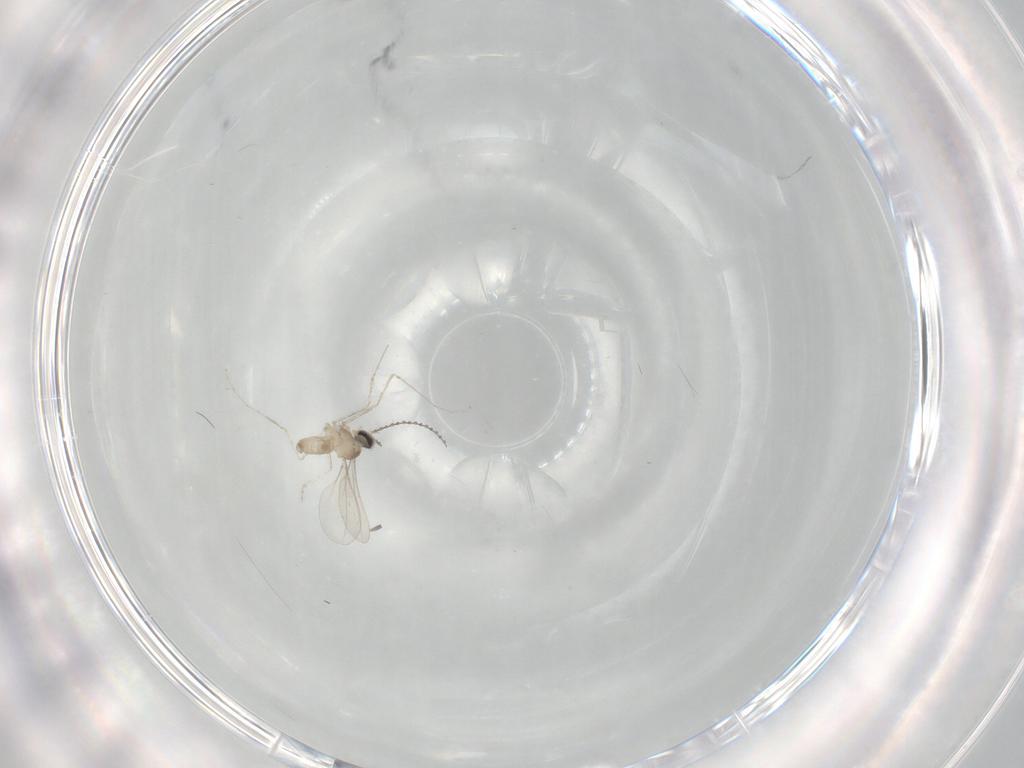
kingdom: Animalia
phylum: Arthropoda
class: Insecta
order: Diptera
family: Cecidomyiidae
